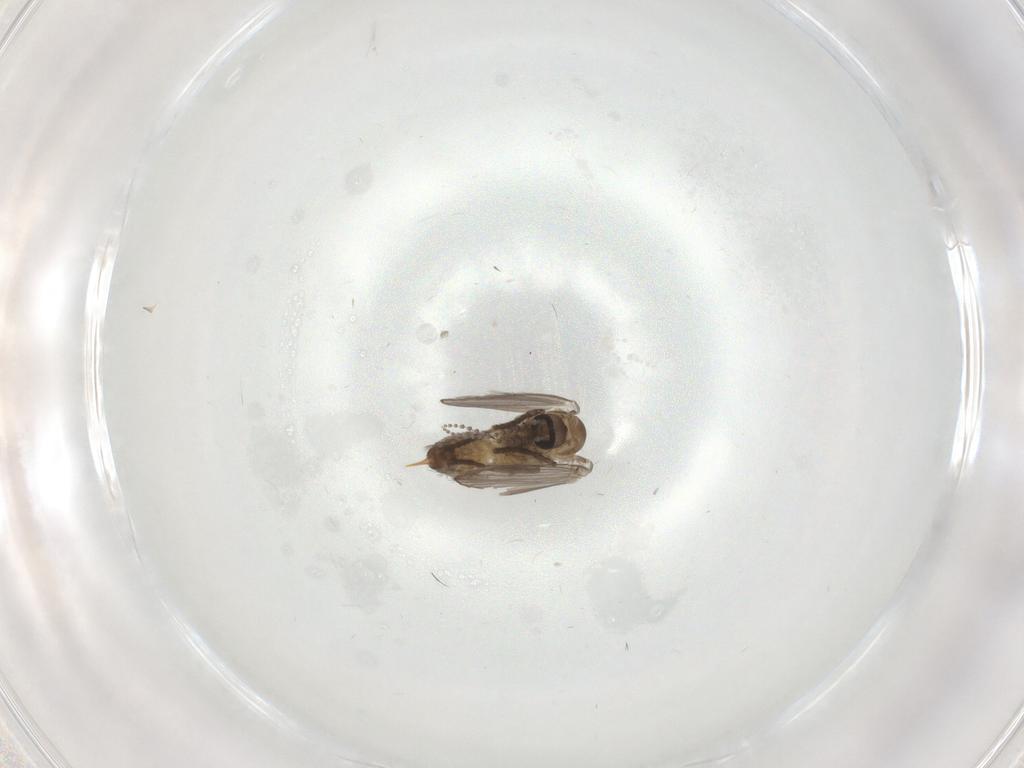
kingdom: Animalia
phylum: Arthropoda
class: Insecta
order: Diptera
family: Psychodidae
